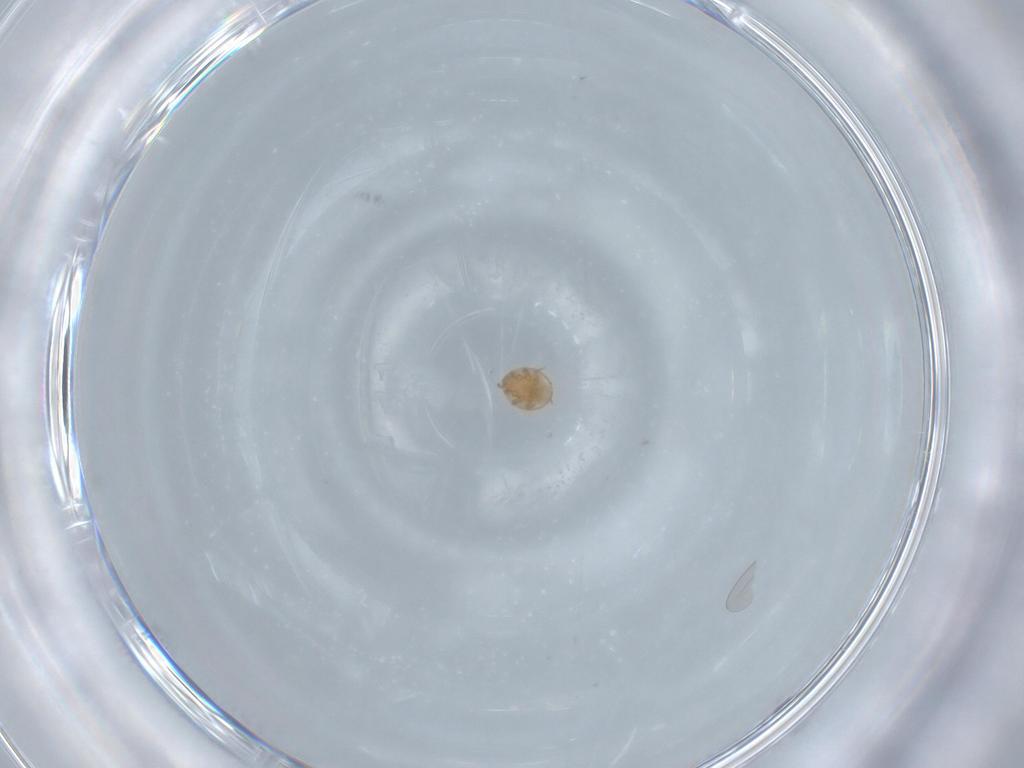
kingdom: Animalia
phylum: Arthropoda
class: Arachnida
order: Mesostigmata
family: Trematuridae
